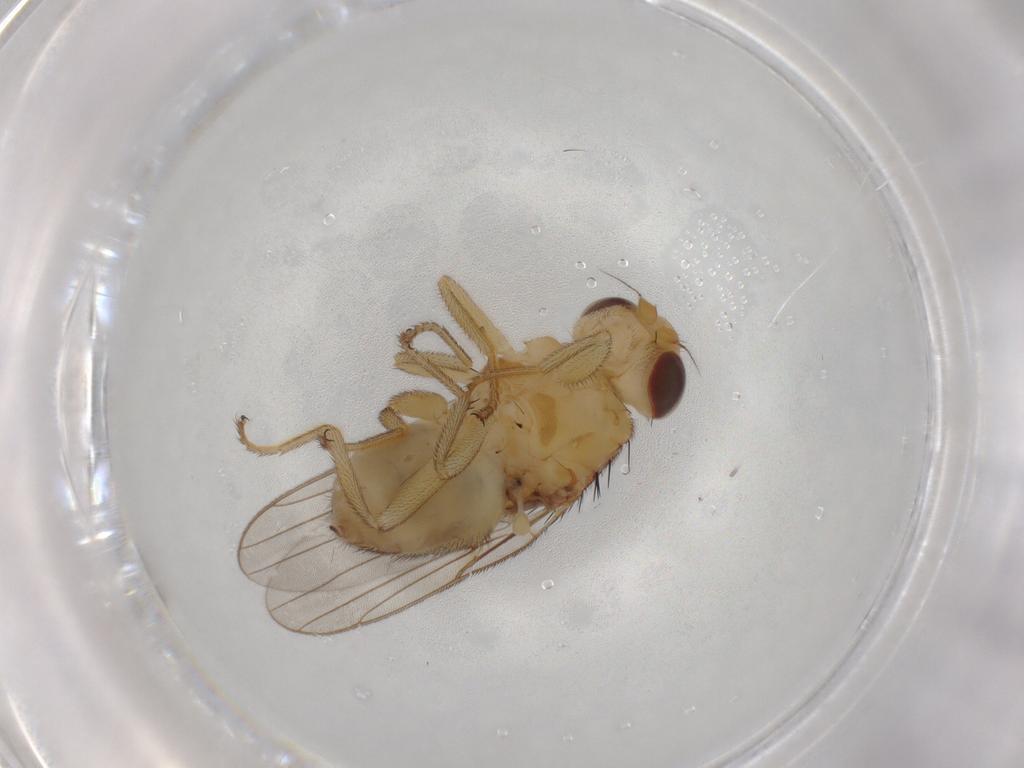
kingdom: Animalia
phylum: Arthropoda
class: Insecta
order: Diptera
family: Chloropidae
